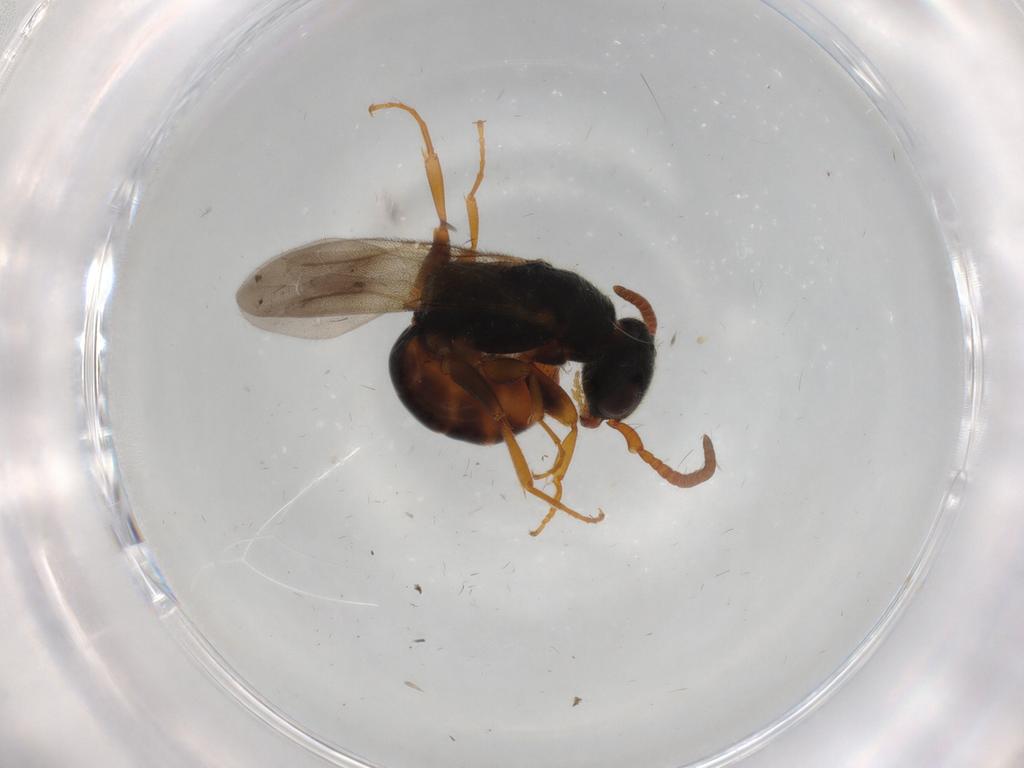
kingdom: Animalia
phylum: Arthropoda
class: Insecta
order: Hymenoptera
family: Bethylidae
